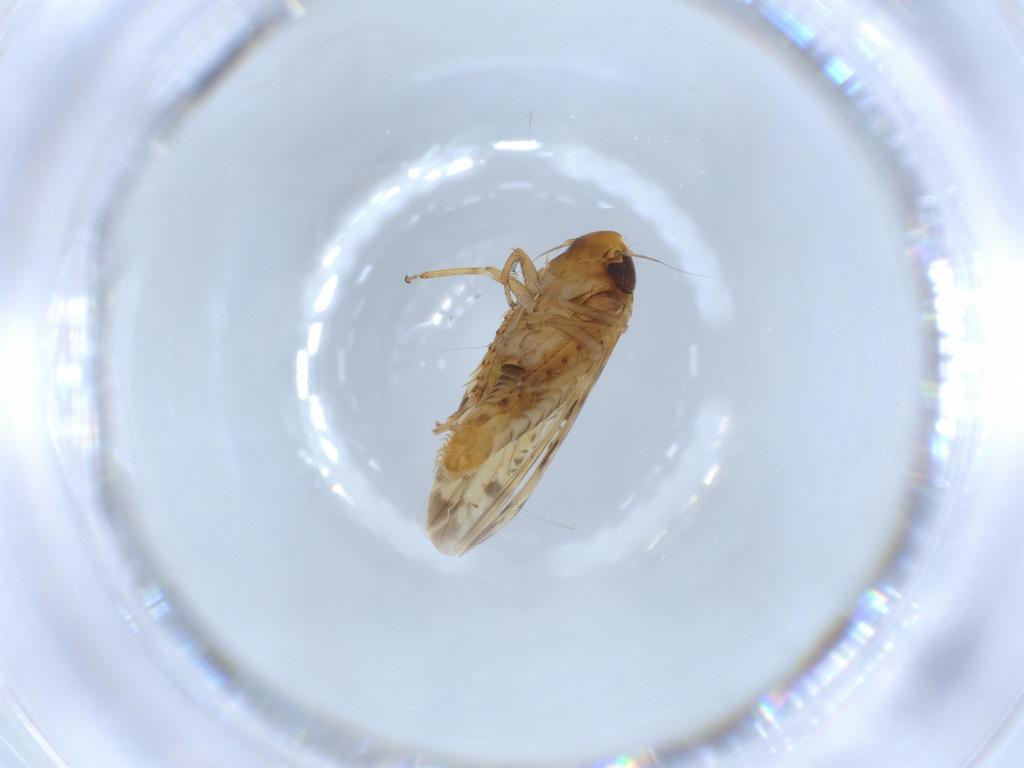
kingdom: Animalia
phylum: Arthropoda
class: Insecta
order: Hemiptera
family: Cicadellidae
